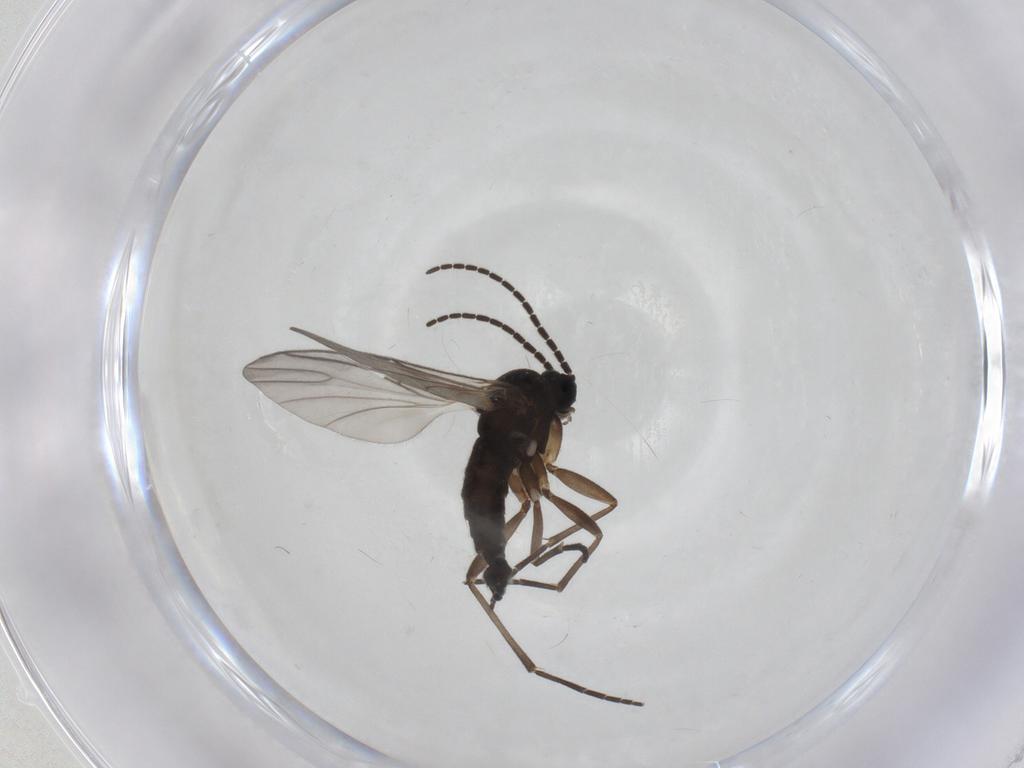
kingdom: Animalia
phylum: Arthropoda
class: Insecta
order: Diptera
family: Sciaridae
